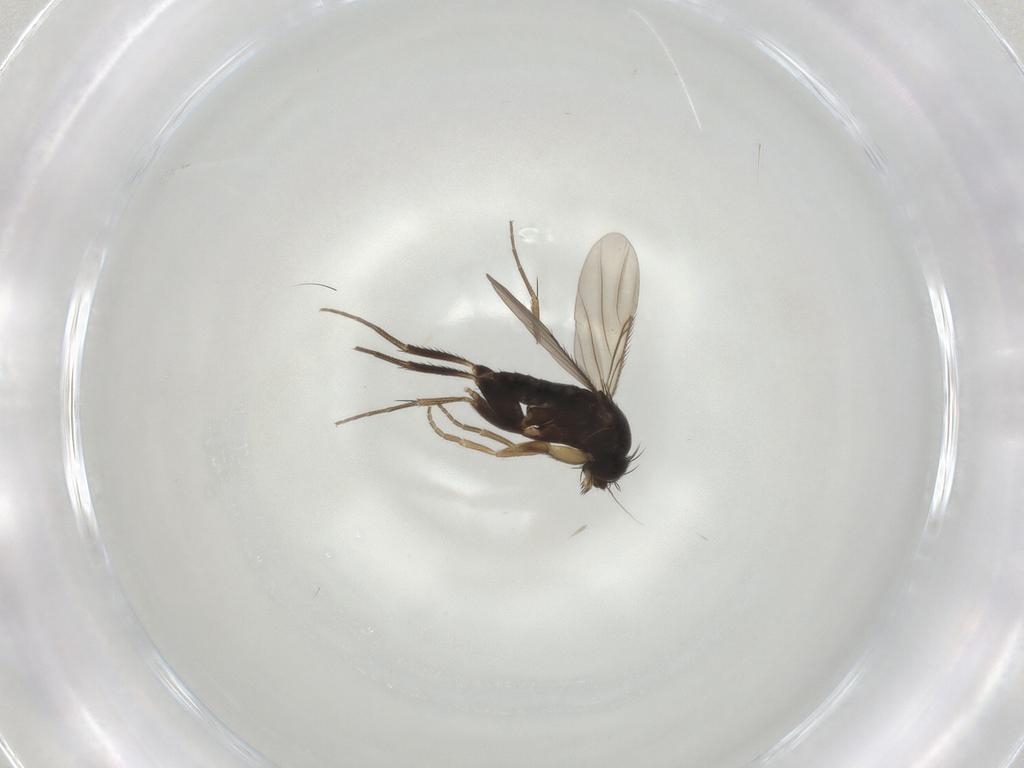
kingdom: Animalia
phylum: Arthropoda
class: Insecta
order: Diptera
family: Phoridae
